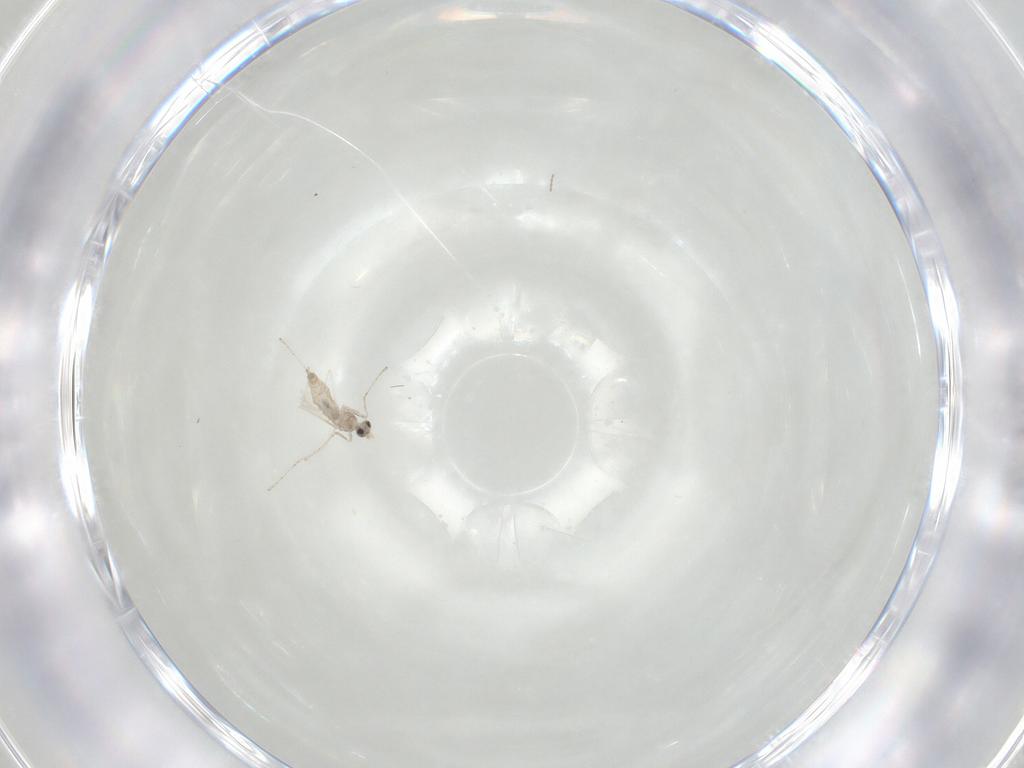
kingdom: Animalia
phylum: Arthropoda
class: Insecta
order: Diptera
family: Cecidomyiidae
